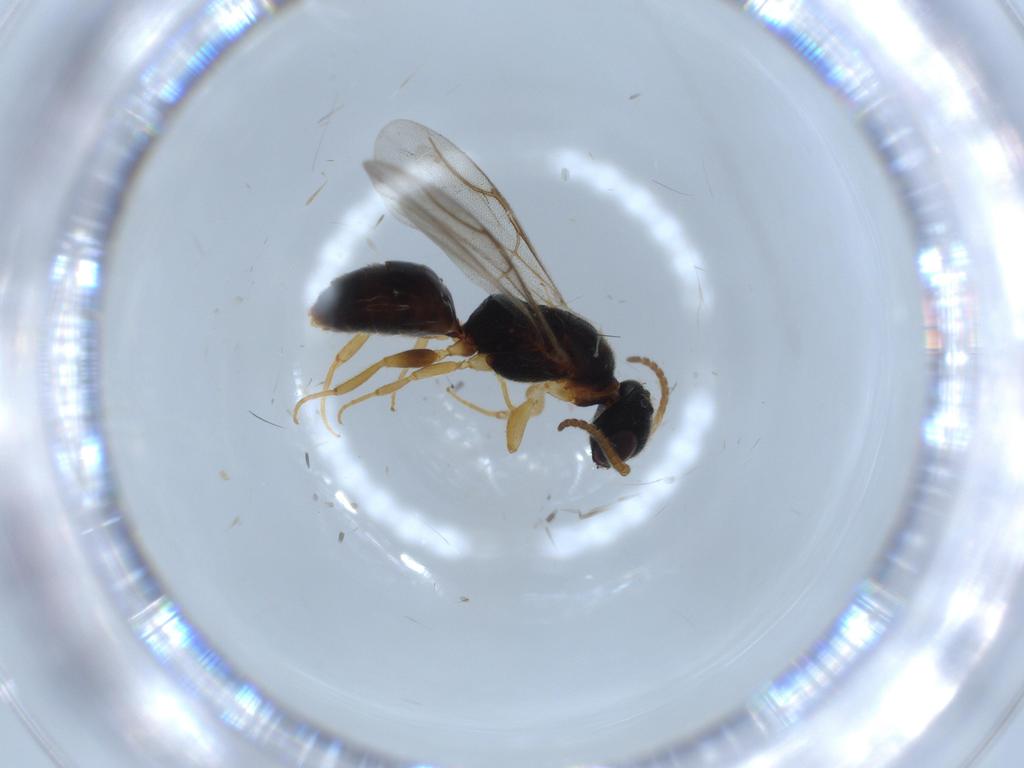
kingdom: Animalia
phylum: Arthropoda
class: Insecta
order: Hymenoptera
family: Bethylidae
